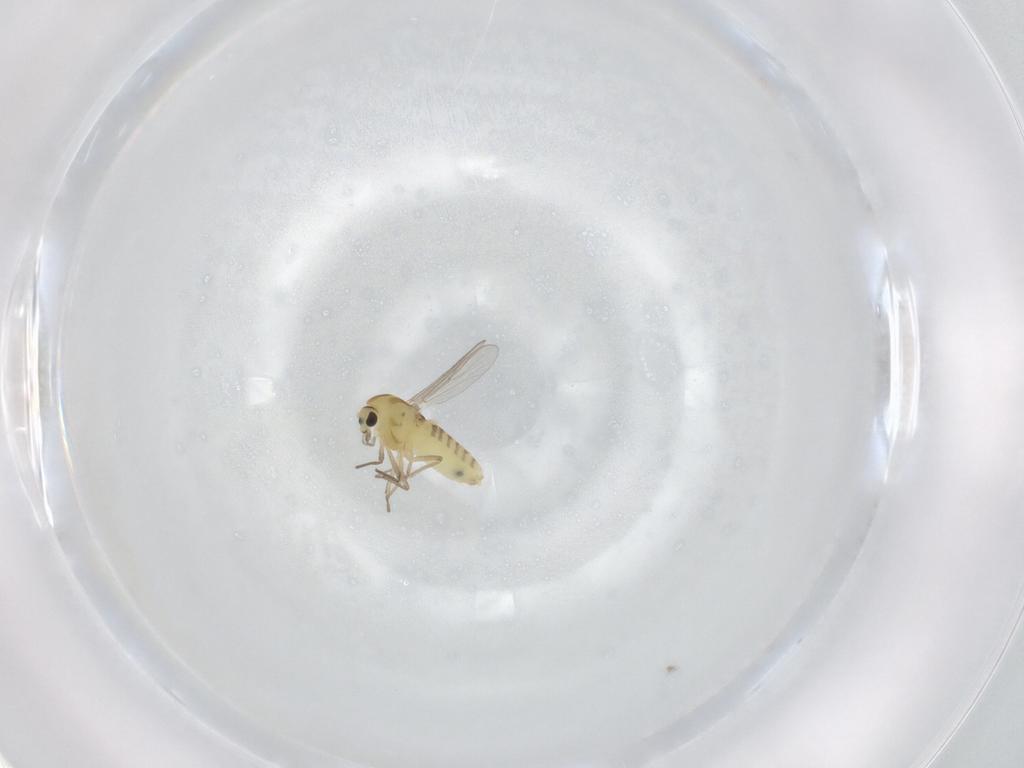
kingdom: Animalia
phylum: Arthropoda
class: Insecta
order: Diptera
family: Chironomidae
